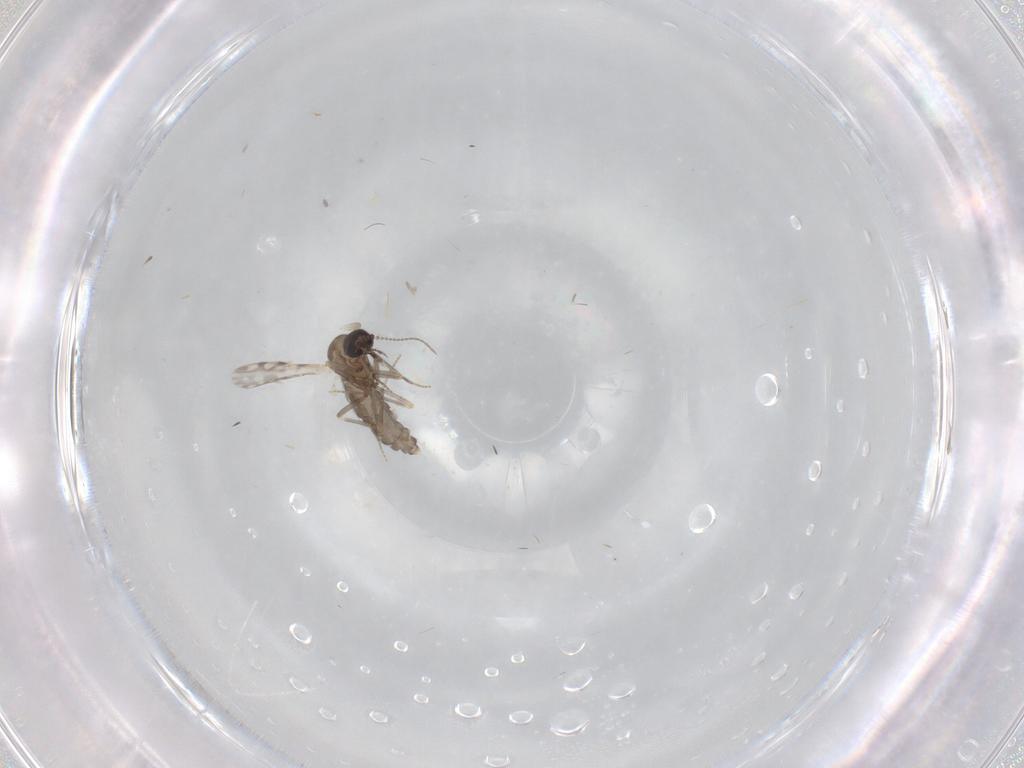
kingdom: Animalia
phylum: Arthropoda
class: Insecta
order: Diptera
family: Ceratopogonidae
